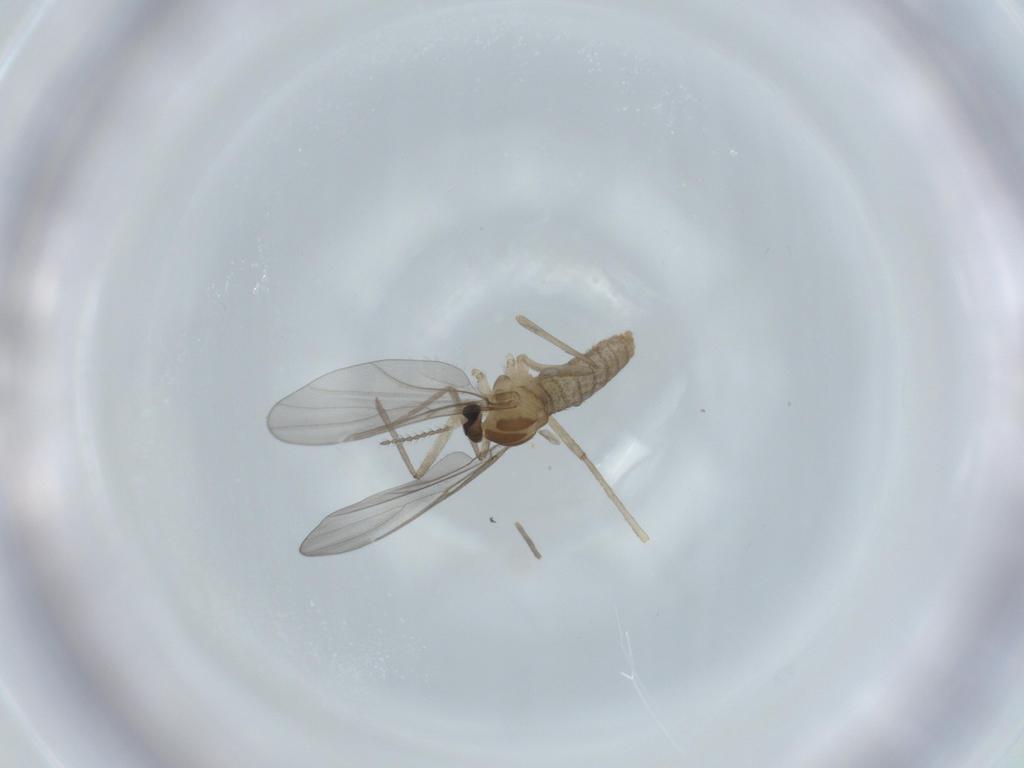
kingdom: Animalia
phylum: Arthropoda
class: Insecta
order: Diptera
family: Cecidomyiidae
